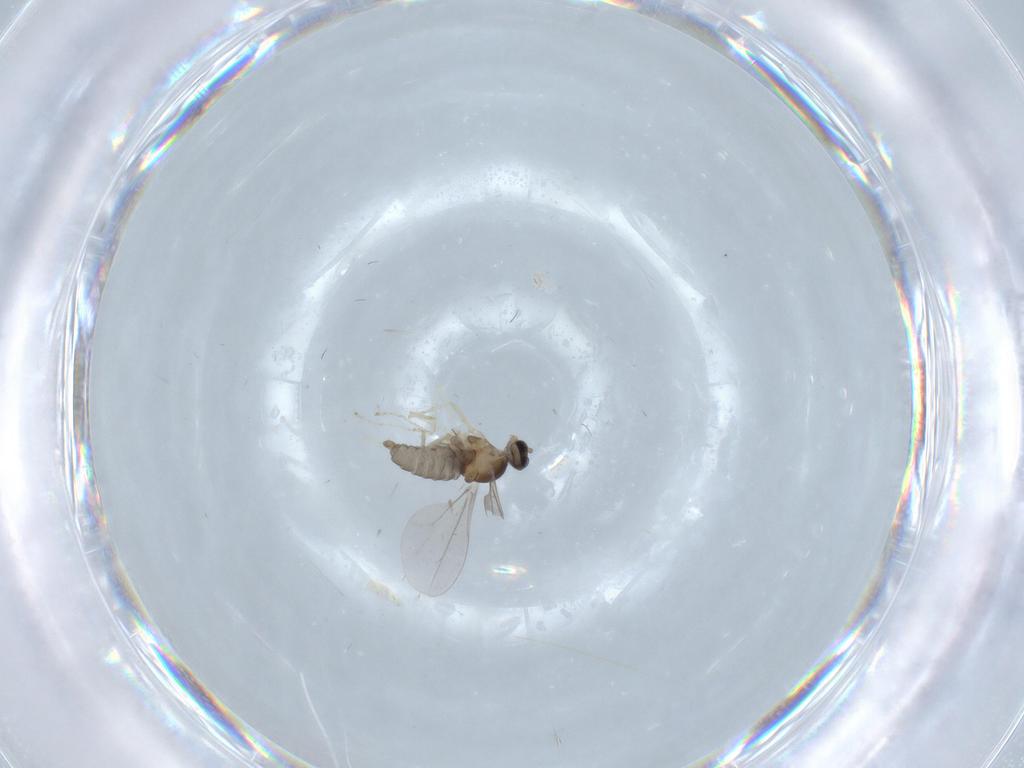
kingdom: Animalia
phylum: Arthropoda
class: Insecta
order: Diptera
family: Cecidomyiidae
